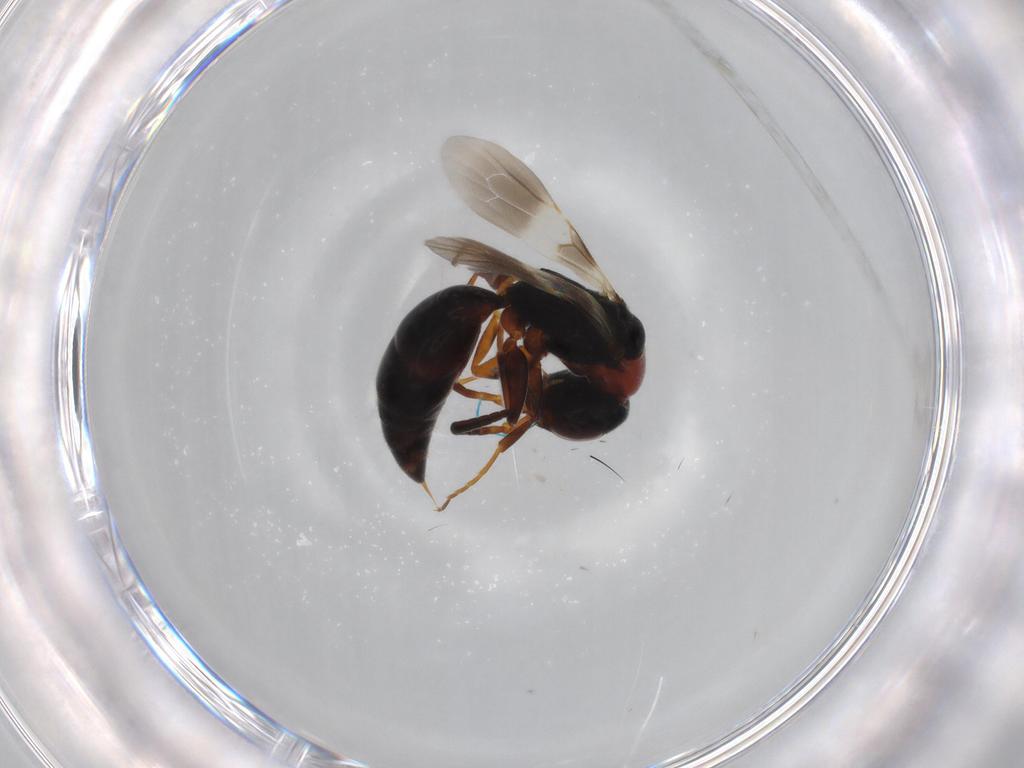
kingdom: Animalia
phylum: Arthropoda
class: Insecta
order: Hymenoptera
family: Bethylidae
